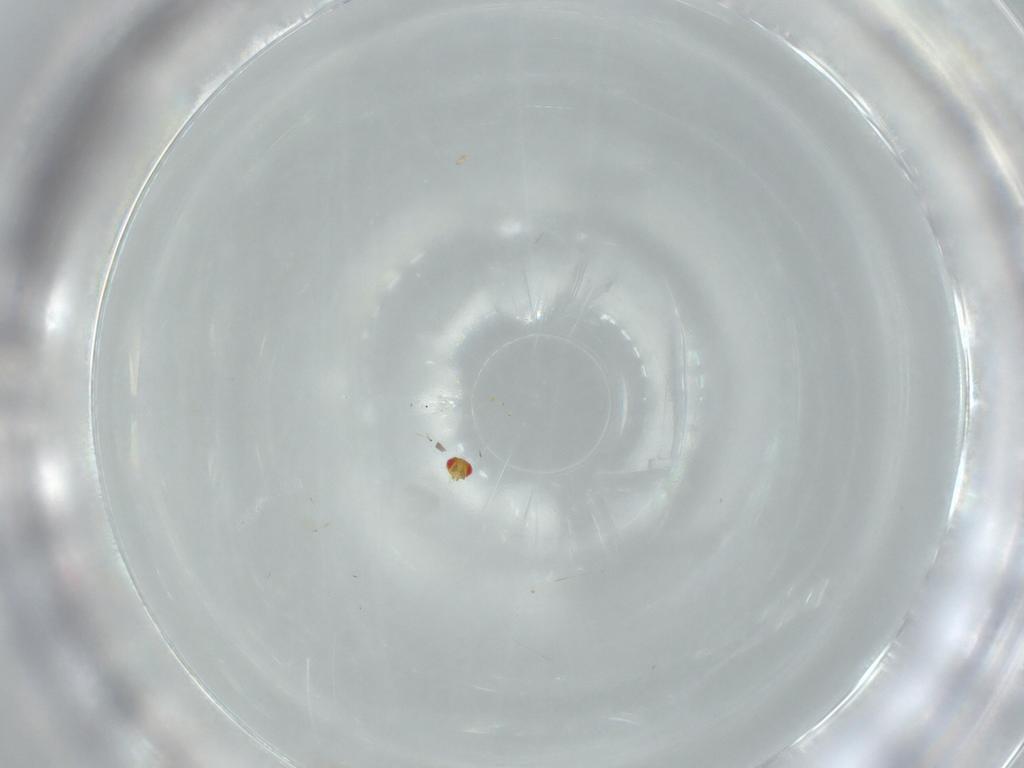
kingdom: Animalia
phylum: Arthropoda
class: Insecta
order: Hymenoptera
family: Trichogrammatidae
